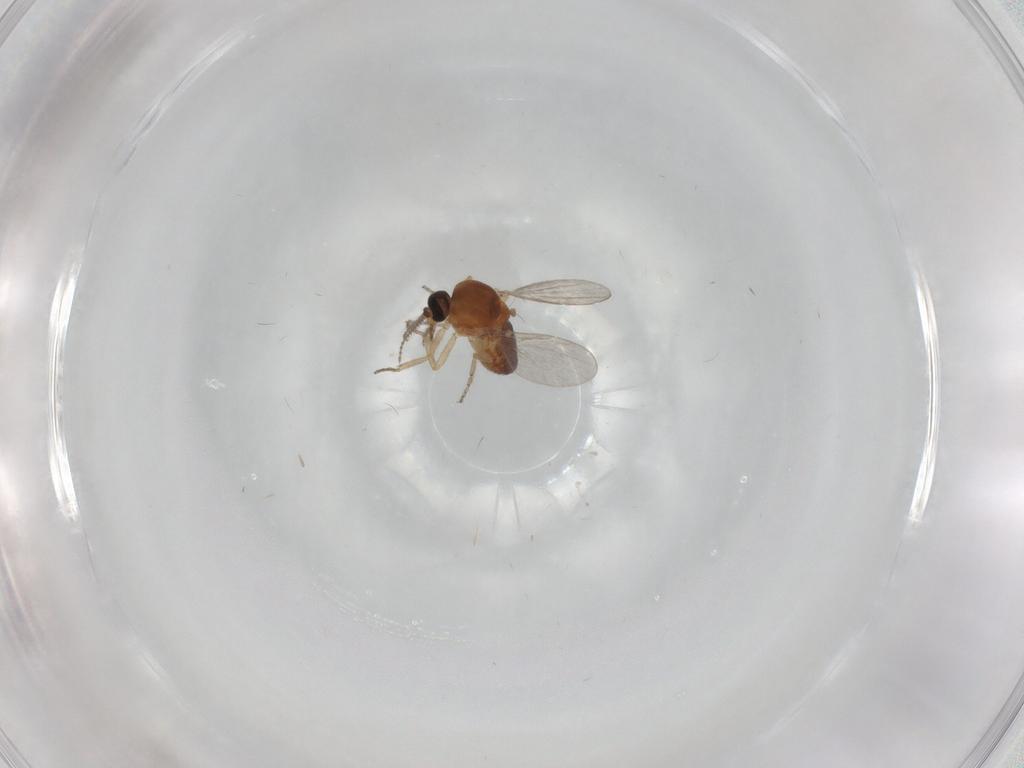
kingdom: Animalia
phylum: Arthropoda
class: Insecta
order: Diptera
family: Ceratopogonidae
